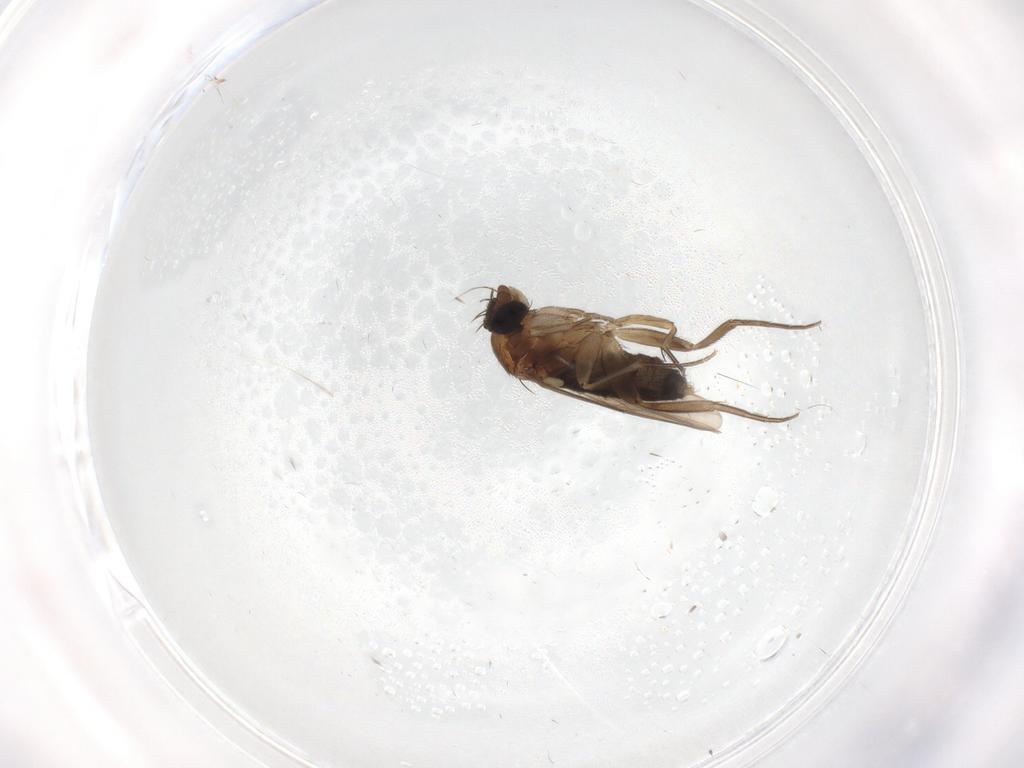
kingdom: Animalia
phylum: Arthropoda
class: Insecta
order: Diptera
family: Phoridae
